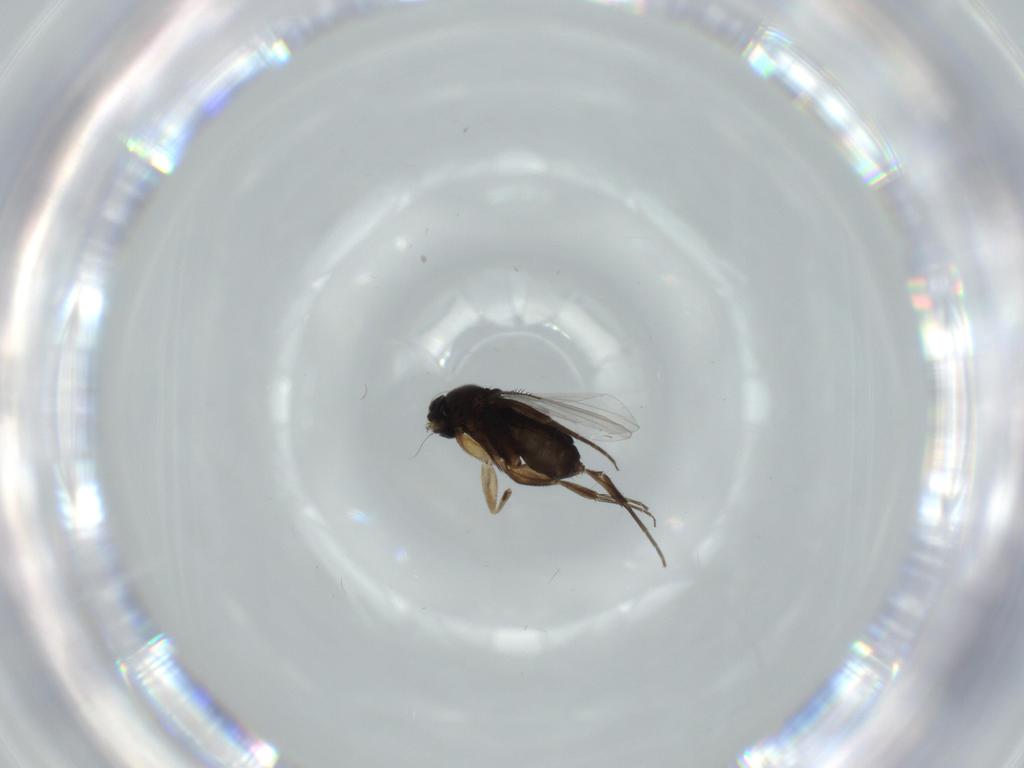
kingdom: Animalia
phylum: Arthropoda
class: Insecta
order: Diptera
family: Phoridae
